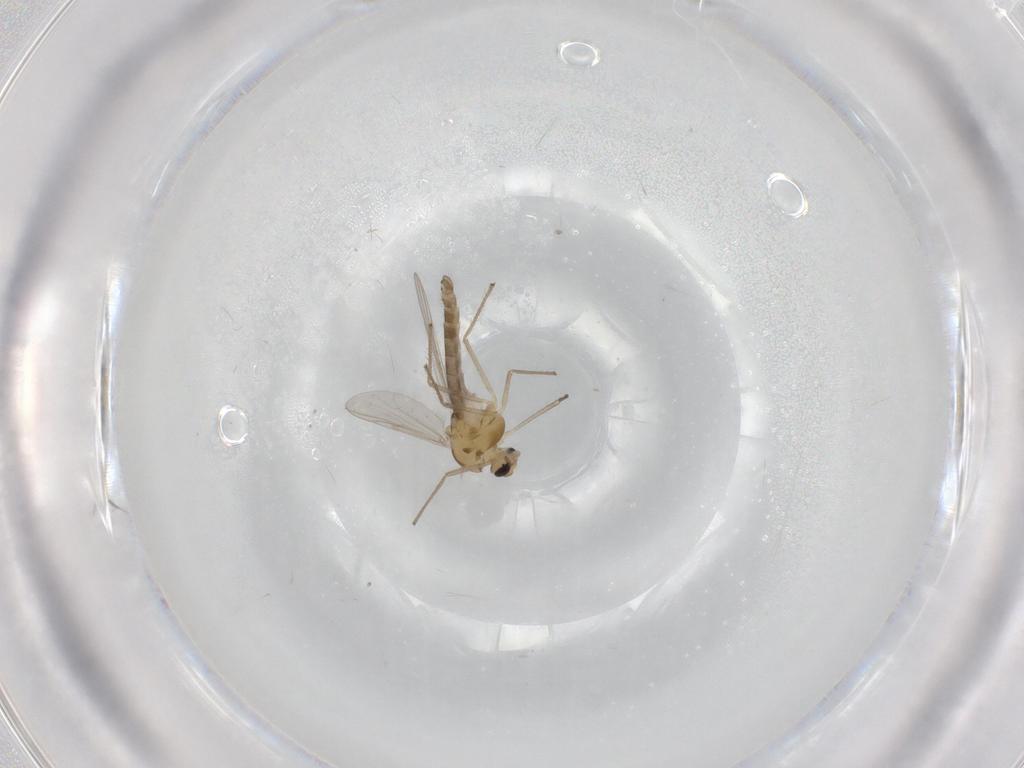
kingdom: Animalia
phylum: Arthropoda
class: Insecta
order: Diptera
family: Chironomidae
